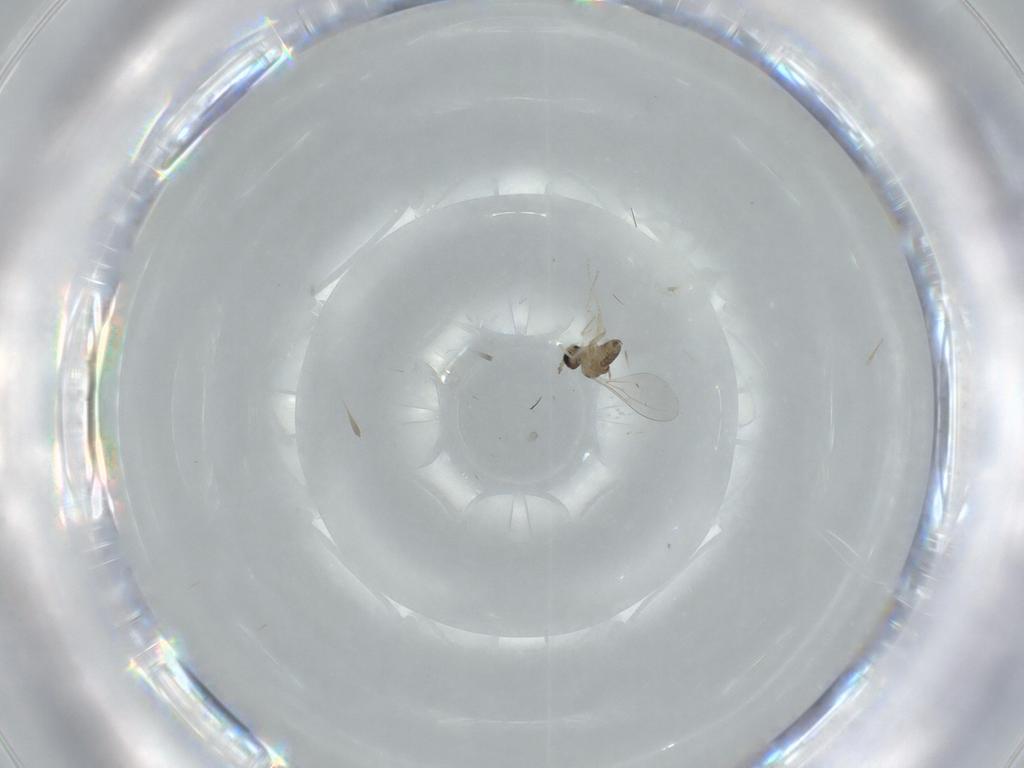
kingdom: Animalia
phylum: Arthropoda
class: Insecta
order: Diptera
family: Cecidomyiidae
